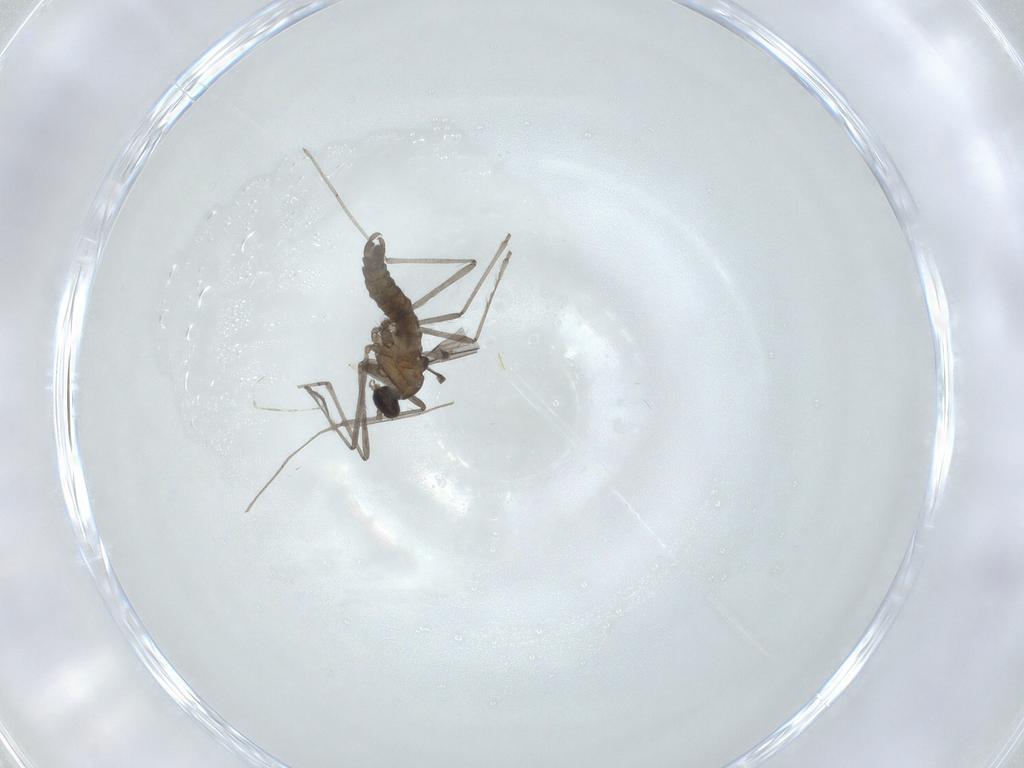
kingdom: Animalia
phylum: Arthropoda
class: Insecta
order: Diptera
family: Cecidomyiidae
